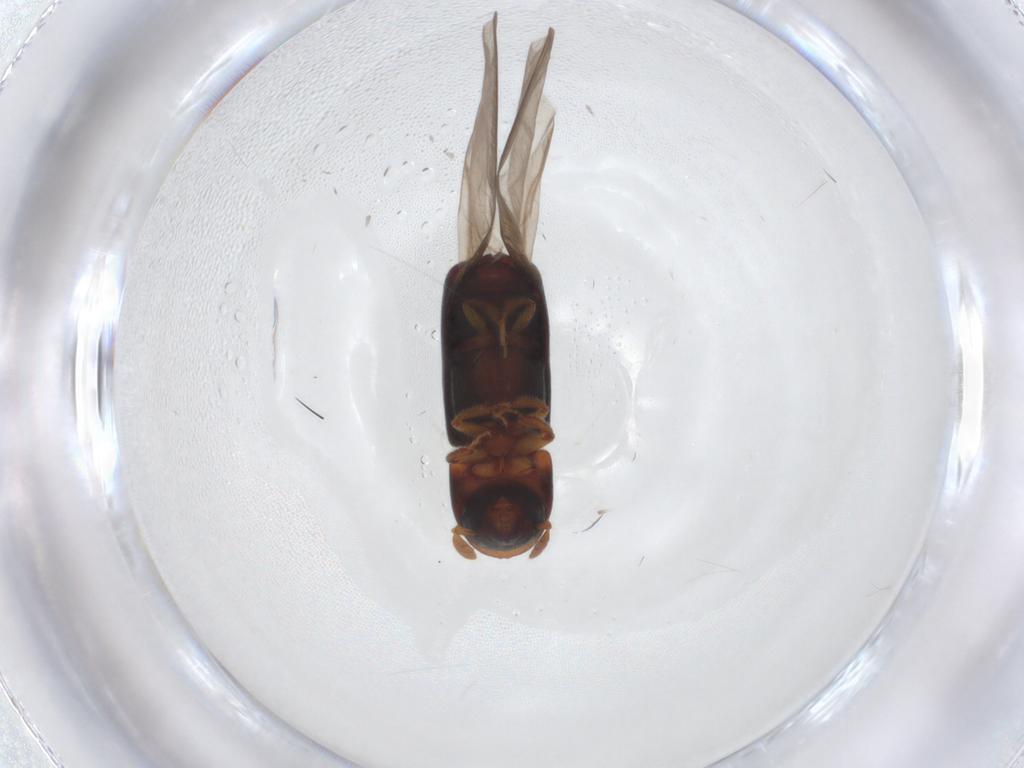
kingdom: Animalia
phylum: Arthropoda
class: Insecta
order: Coleoptera
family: Curculionidae
